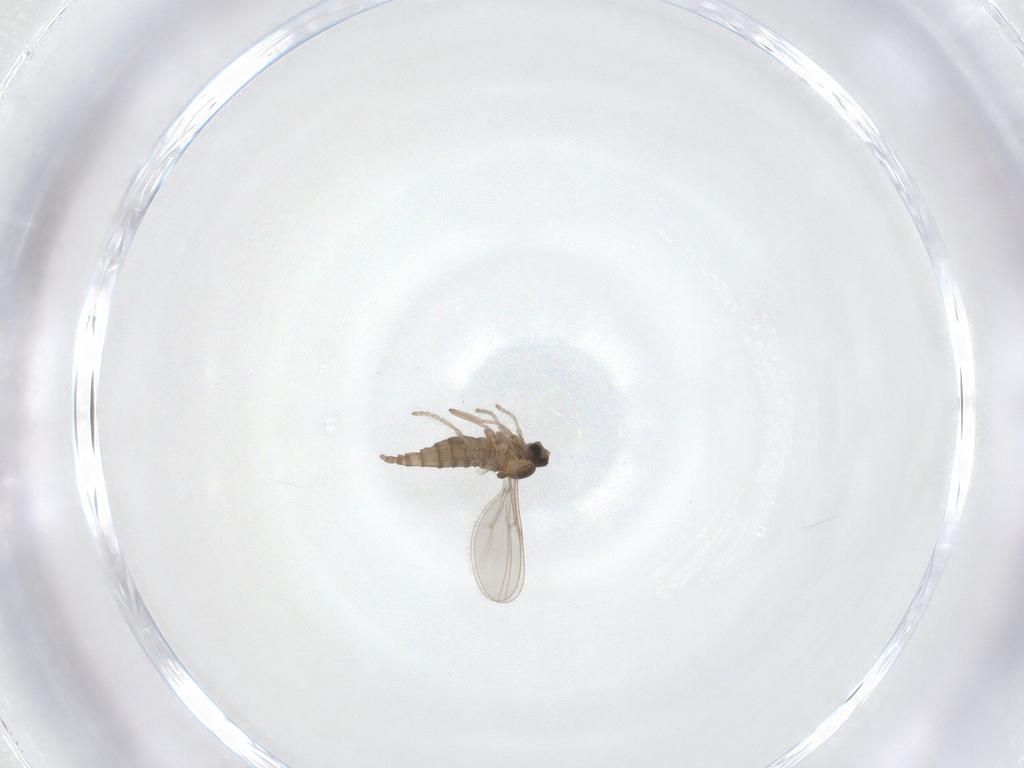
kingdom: Animalia
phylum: Arthropoda
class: Insecta
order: Diptera
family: Cecidomyiidae
